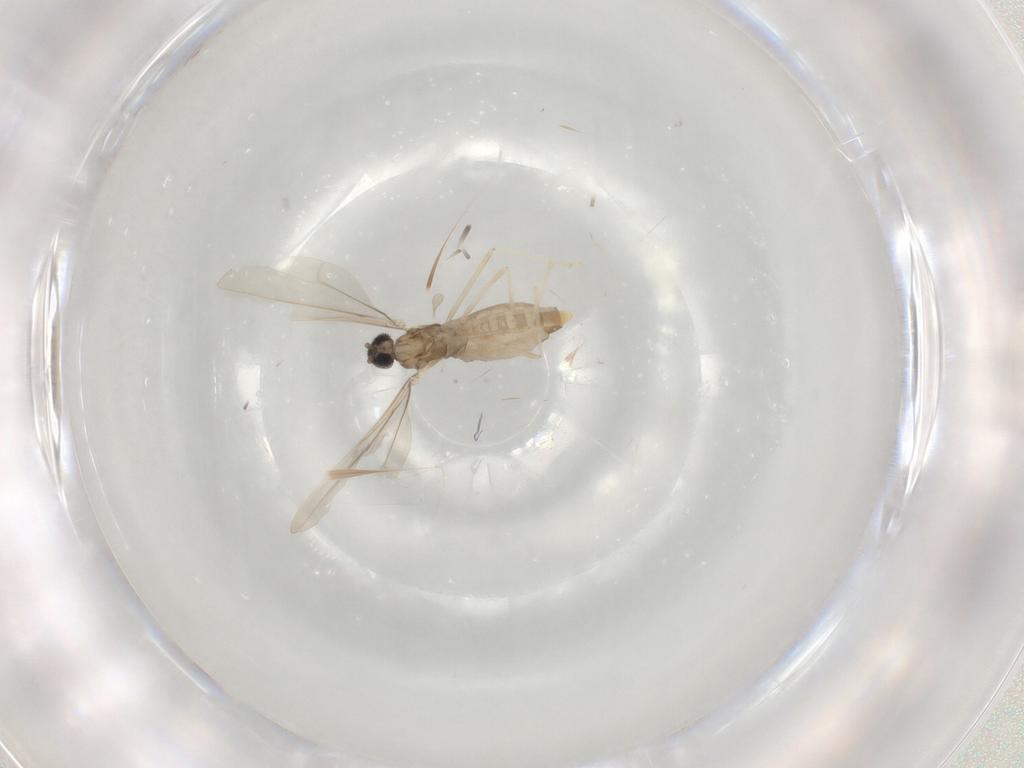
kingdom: Animalia
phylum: Arthropoda
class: Insecta
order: Diptera
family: Cecidomyiidae
